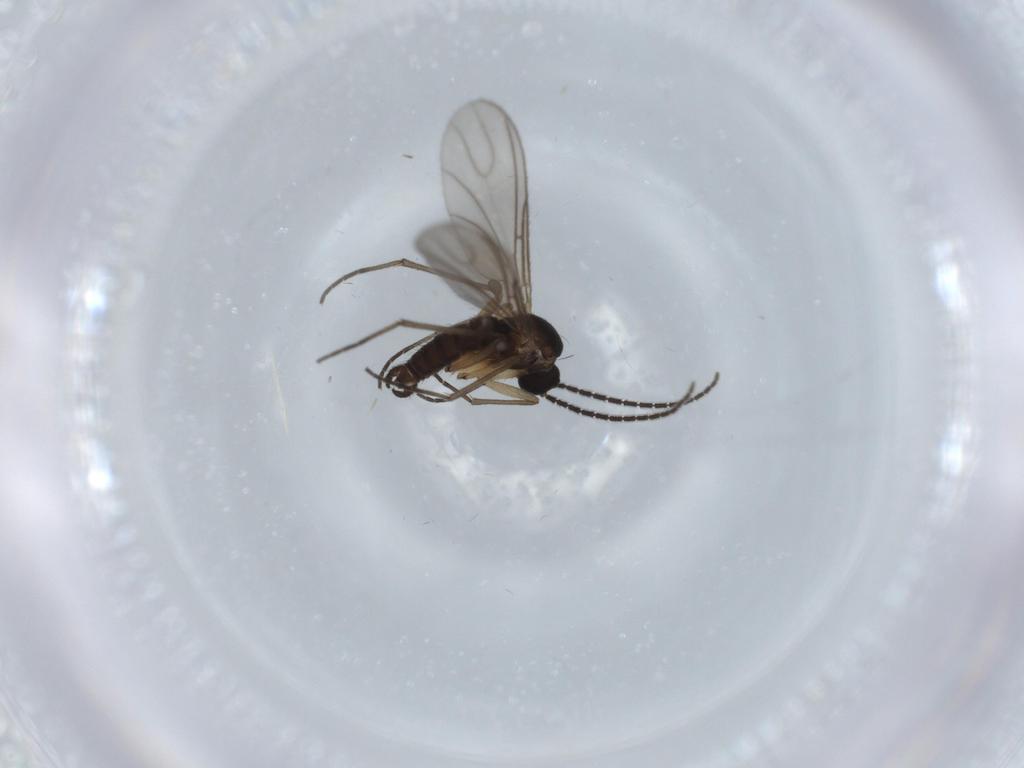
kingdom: Animalia
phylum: Arthropoda
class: Insecta
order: Diptera
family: Sciaridae
